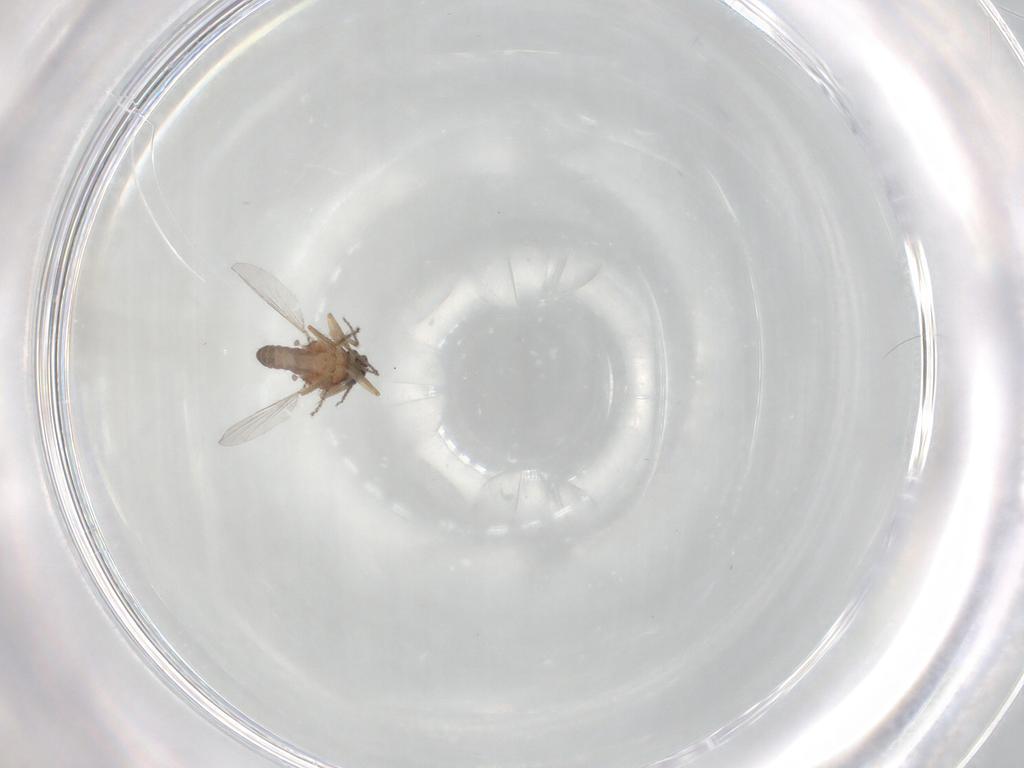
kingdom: Animalia
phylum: Arthropoda
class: Insecta
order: Diptera
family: Ceratopogonidae
